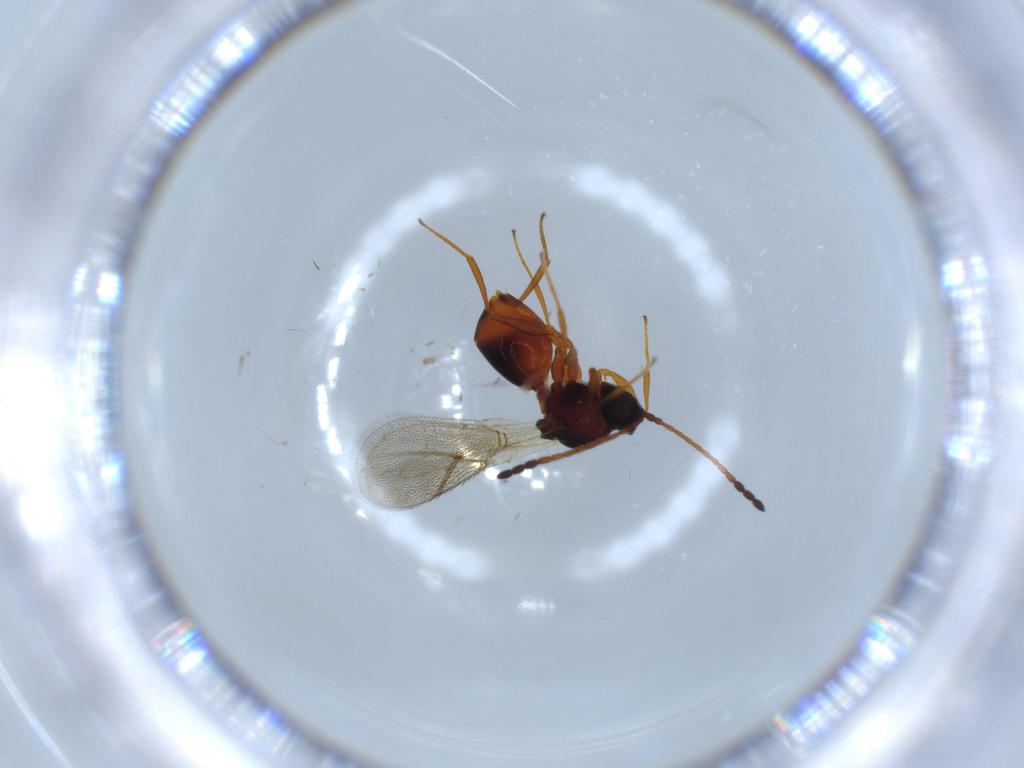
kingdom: Animalia
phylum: Arthropoda
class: Insecta
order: Hymenoptera
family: Figitidae
